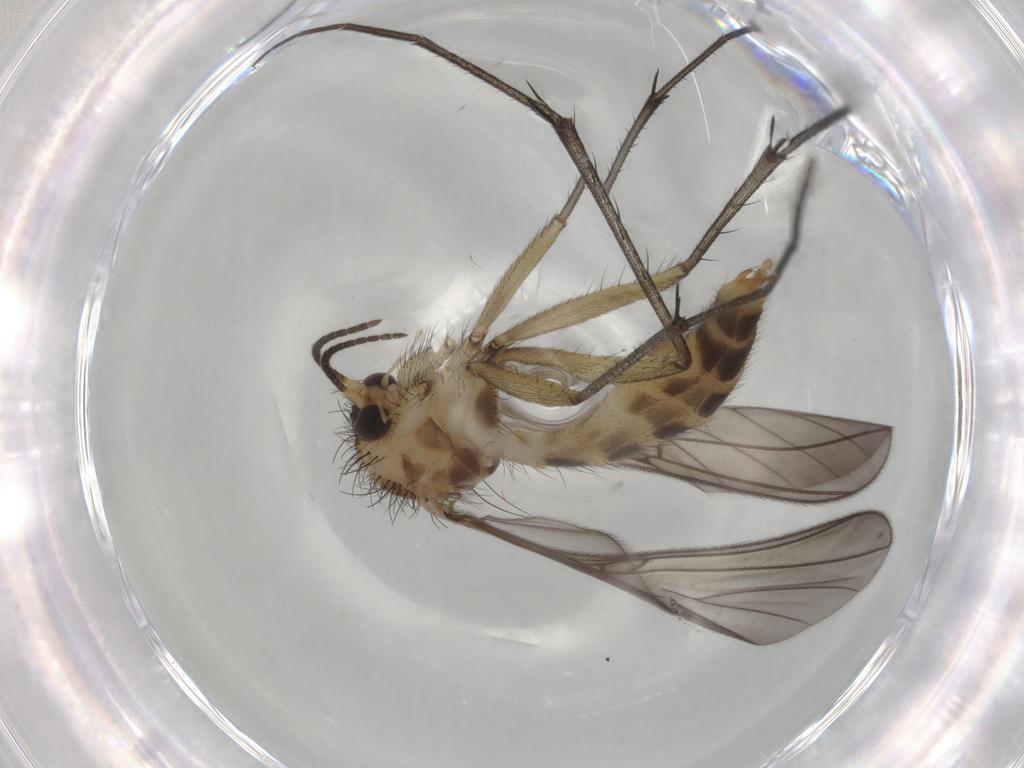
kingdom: Animalia
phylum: Arthropoda
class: Insecta
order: Diptera
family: Mycetophilidae
